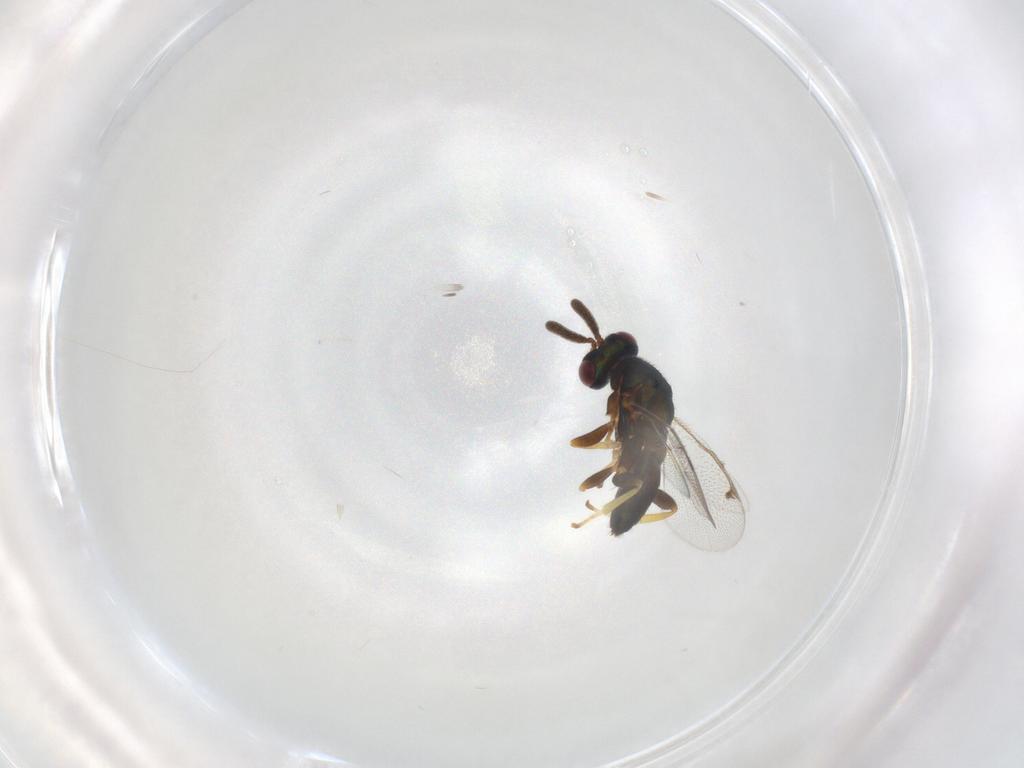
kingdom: Animalia
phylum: Arthropoda
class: Insecta
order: Hymenoptera
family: Torymidae
